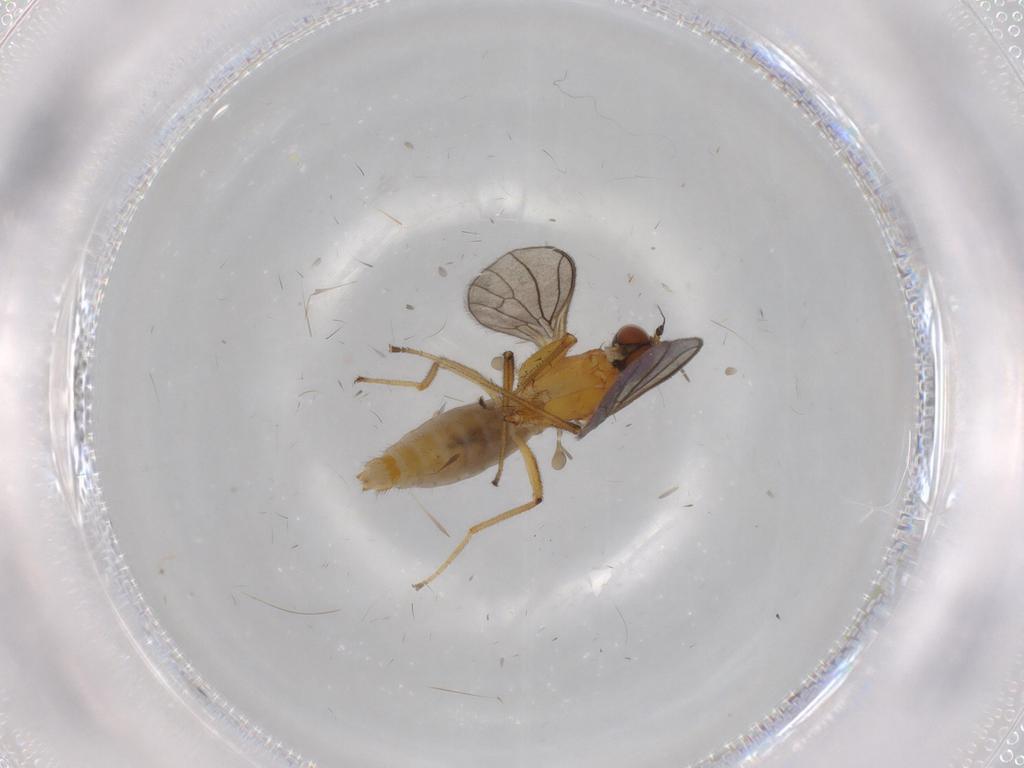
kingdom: Animalia
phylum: Arthropoda
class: Insecta
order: Diptera
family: Empididae
